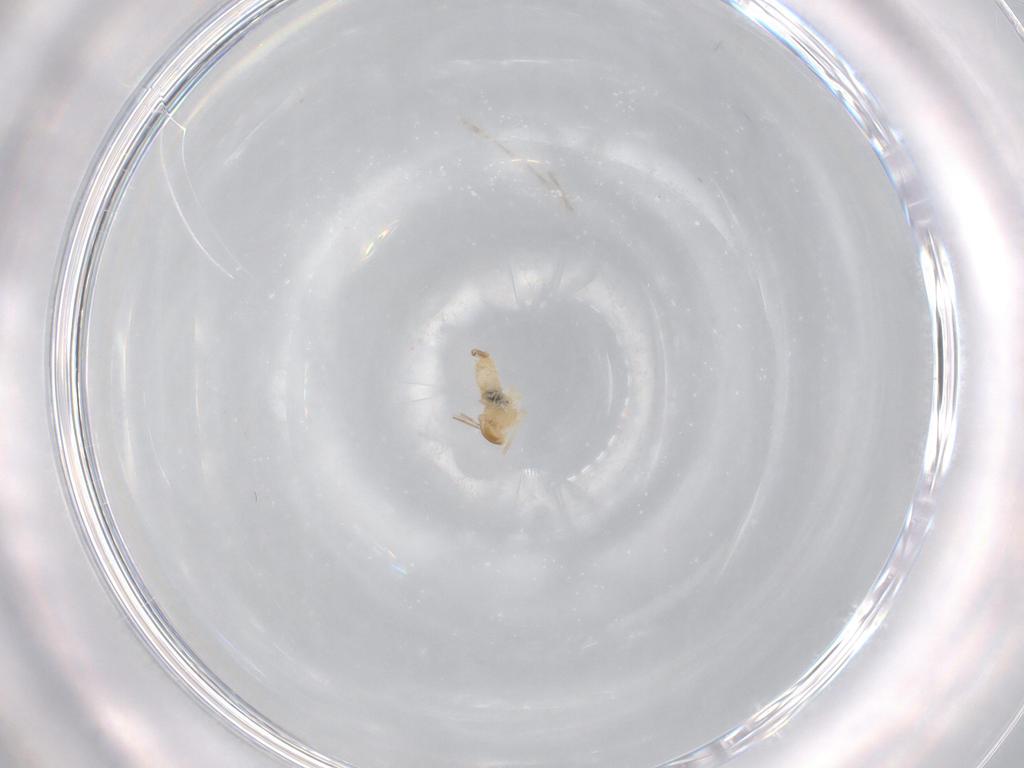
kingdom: Animalia
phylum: Arthropoda
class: Insecta
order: Diptera
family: Cecidomyiidae
